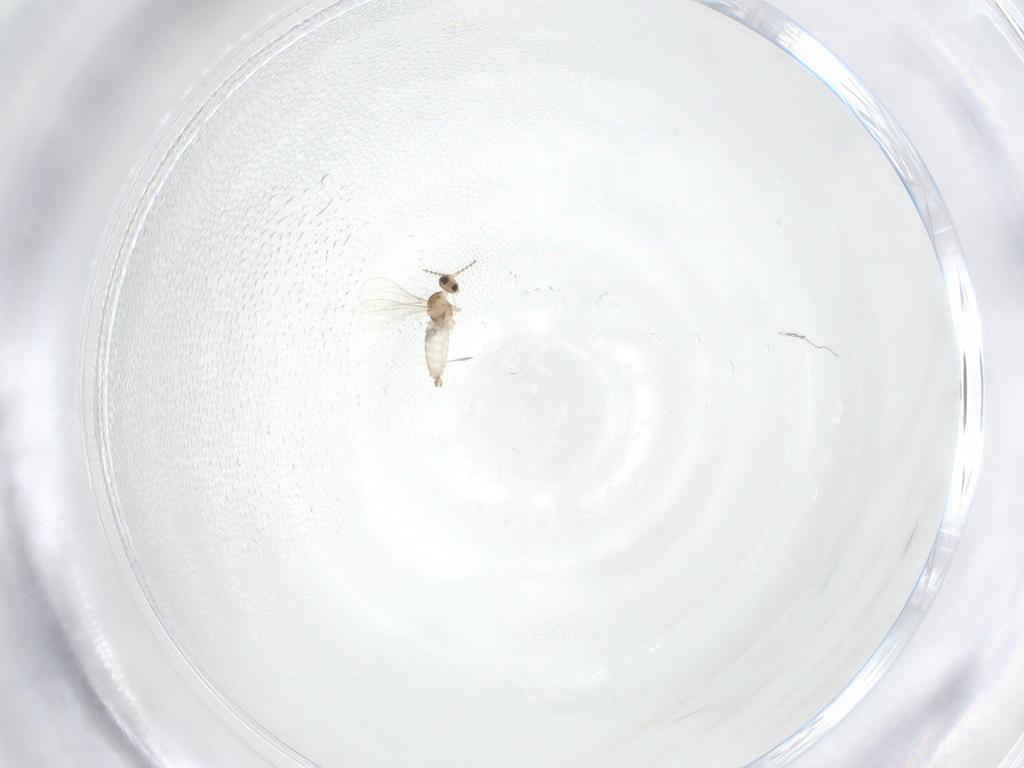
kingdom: Animalia
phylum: Arthropoda
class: Insecta
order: Diptera
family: Cecidomyiidae
